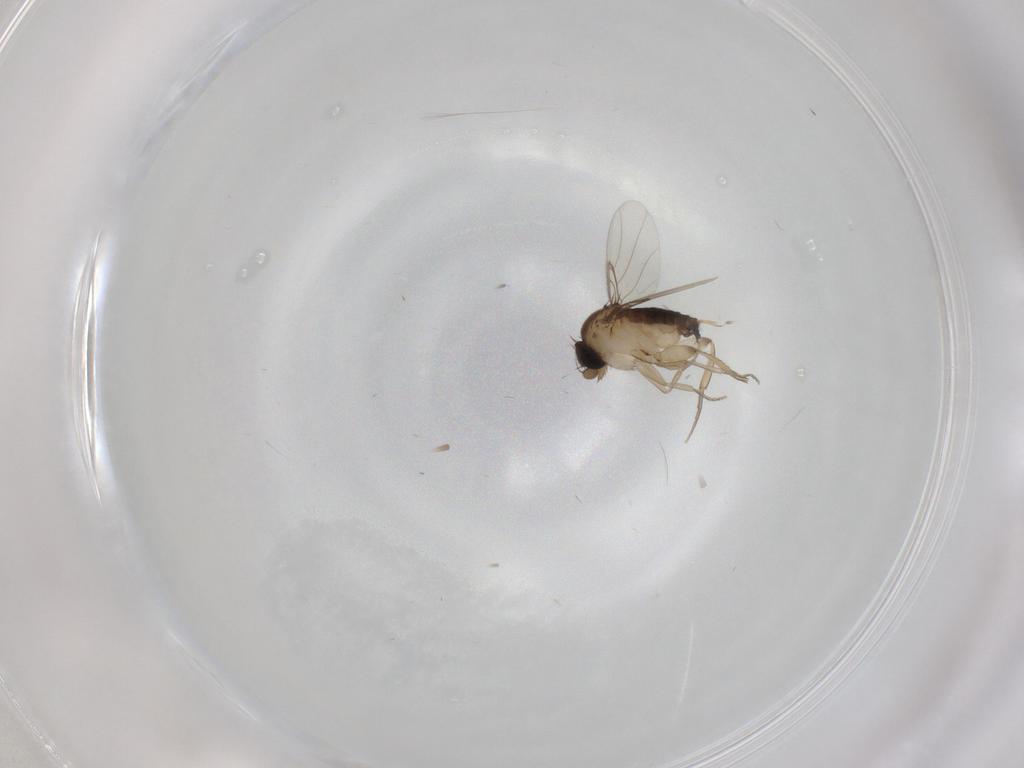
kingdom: Animalia
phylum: Arthropoda
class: Insecta
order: Diptera
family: Phoridae
